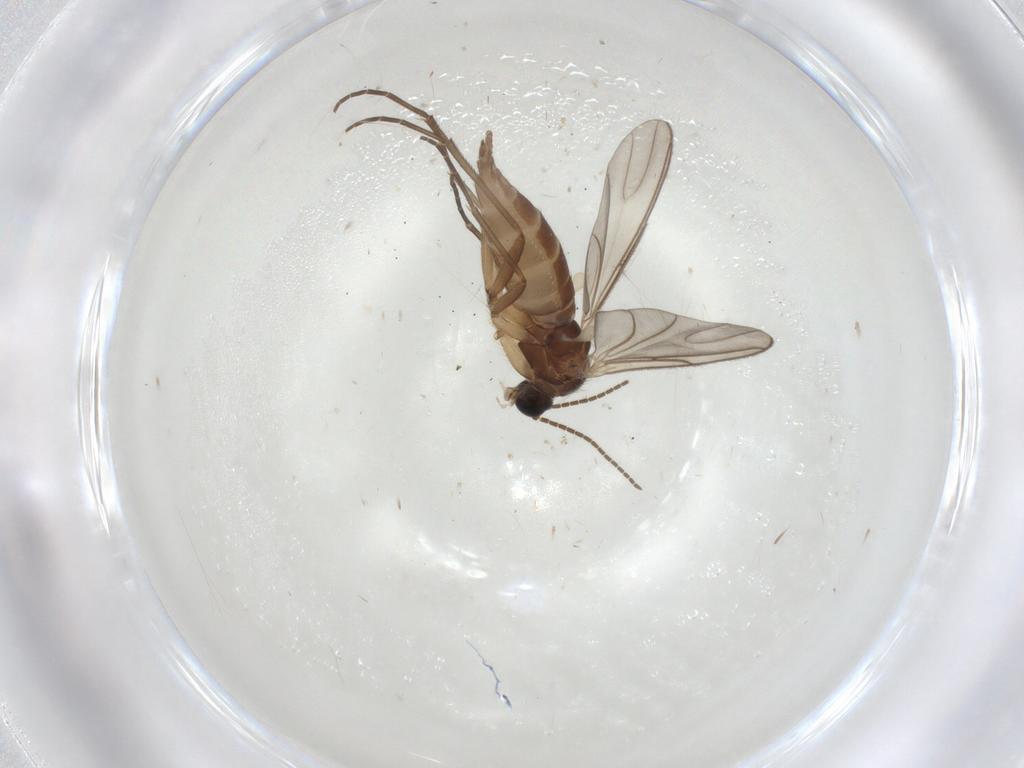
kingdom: Animalia
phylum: Arthropoda
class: Insecta
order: Diptera
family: Sciaridae
